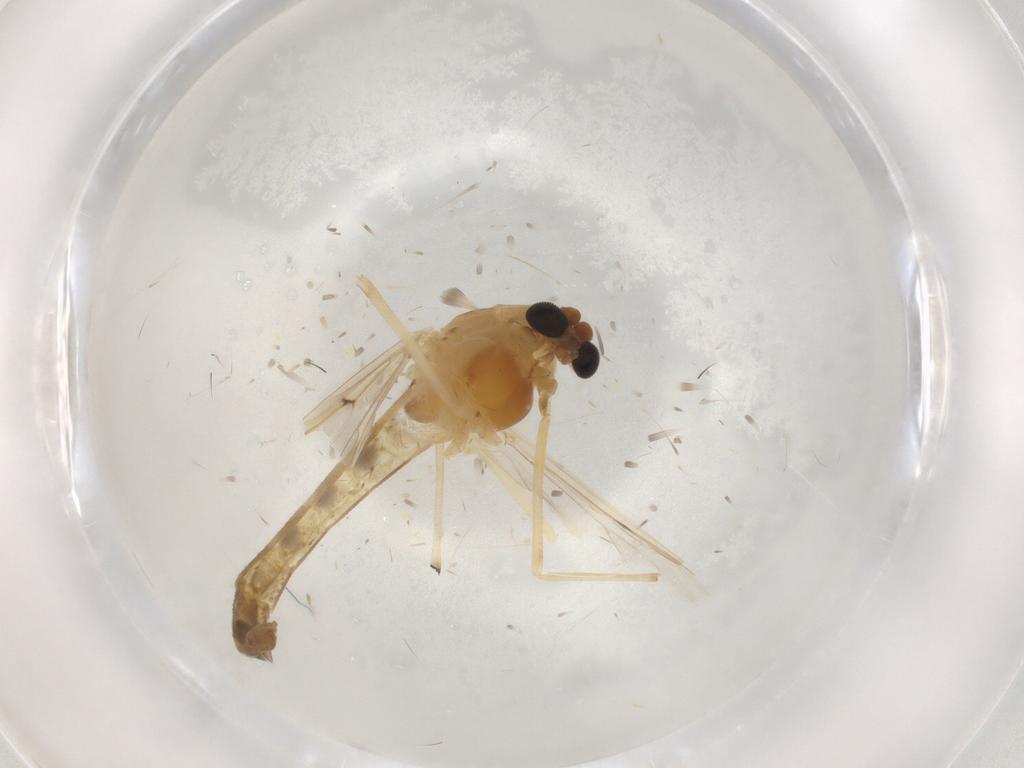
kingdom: Animalia
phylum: Arthropoda
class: Insecta
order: Diptera
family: Chironomidae
